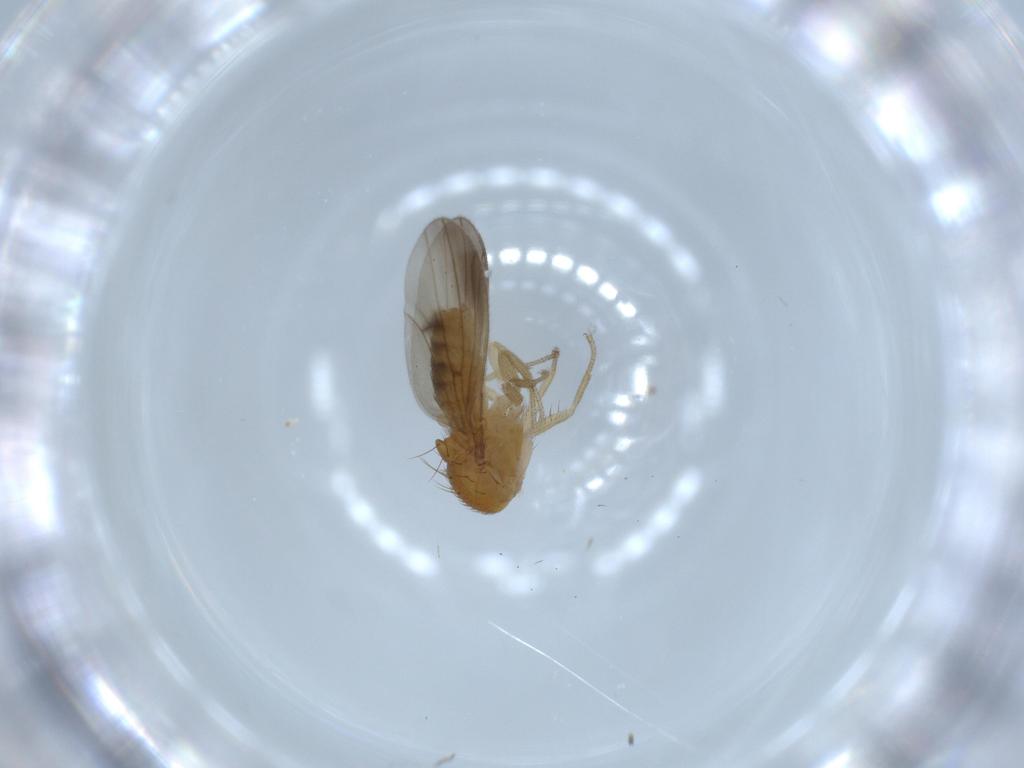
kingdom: Animalia
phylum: Arthropoda
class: Insecta
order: Diptera
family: Drosophilidae
